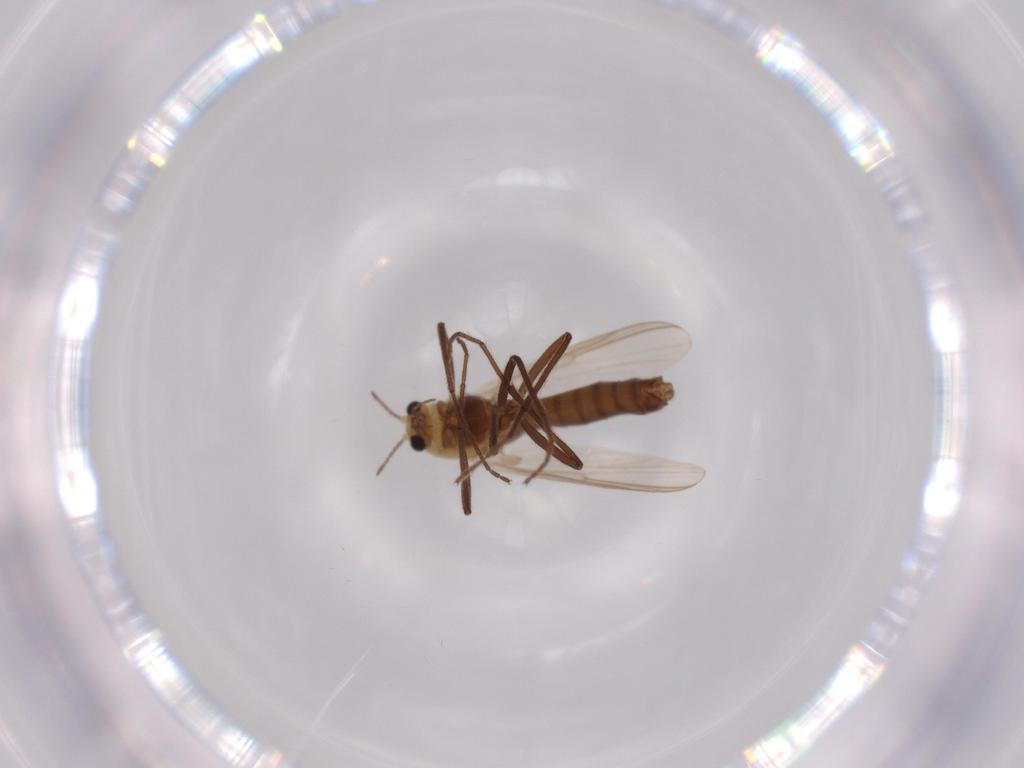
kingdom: Animalia
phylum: Arthropoda
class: Insecta
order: Diptera
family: Chironomidae
